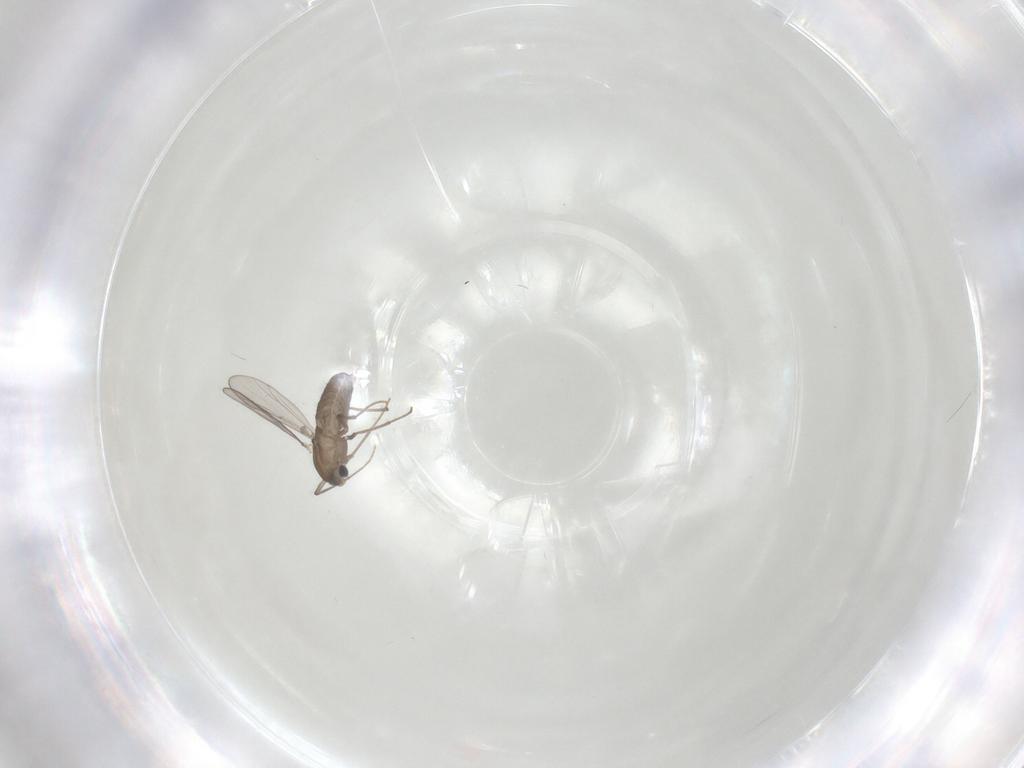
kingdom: Animalia
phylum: Arthropoda
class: Insecta
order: Diptera
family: Chironomidae
